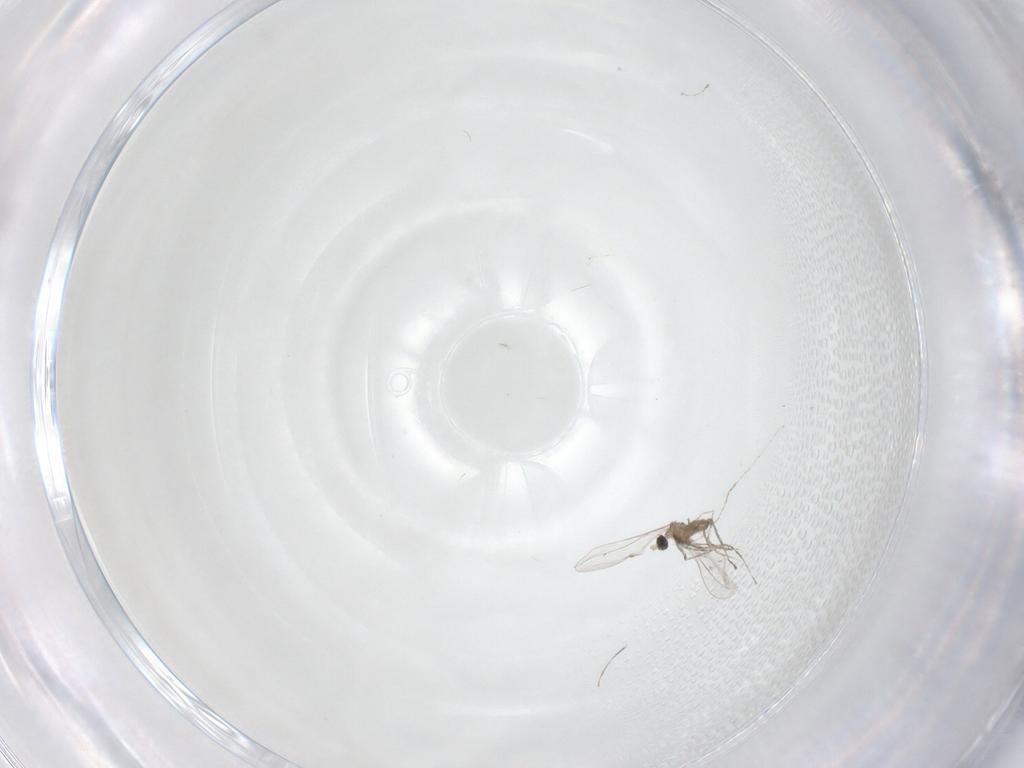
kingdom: Animalia
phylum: Arthropoda
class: Insecta
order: Diptera
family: Cecidomyiidae
